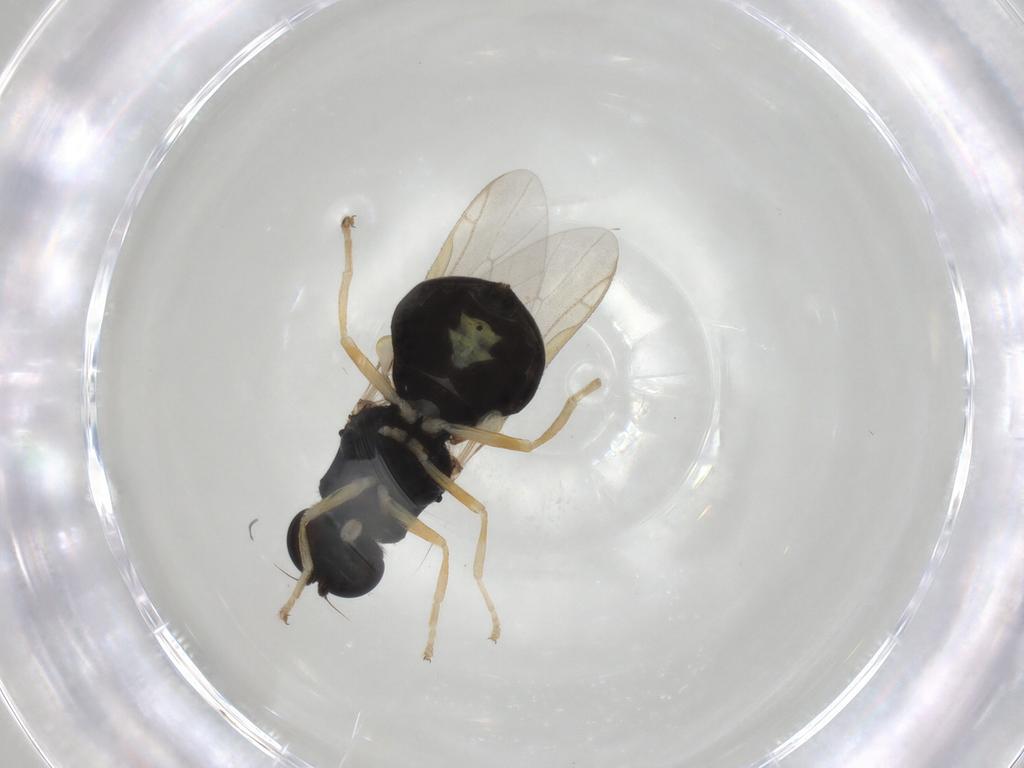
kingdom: Animalia
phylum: Arthropoda
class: Insecta
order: Diptera
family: Stratiomyidae
